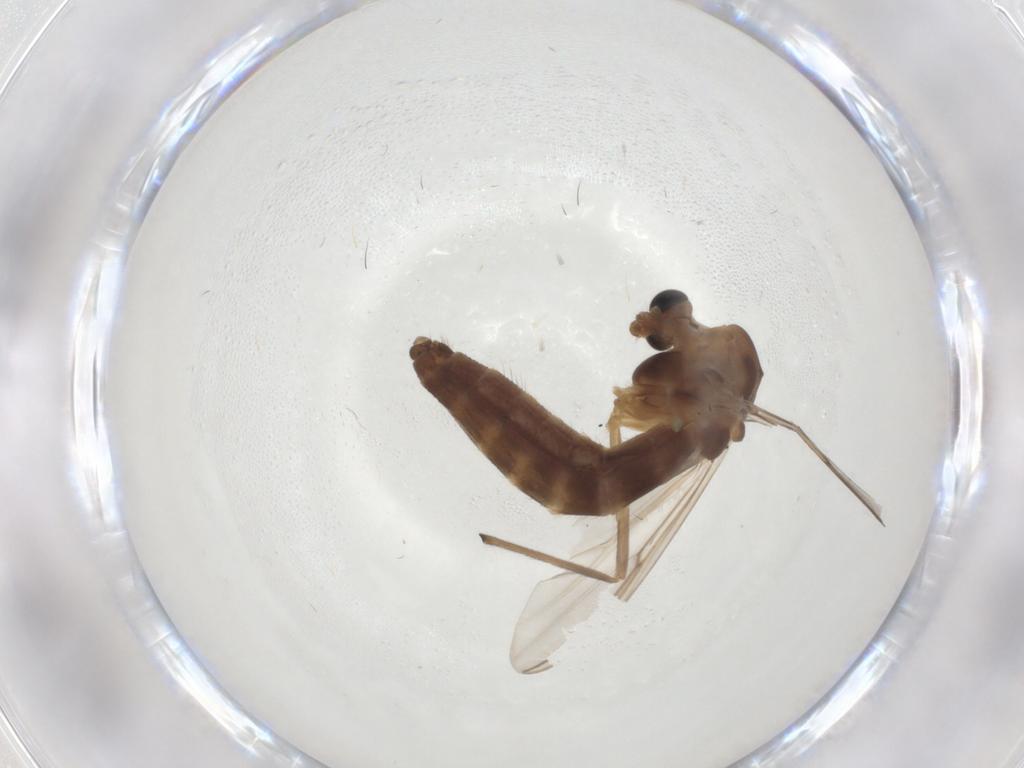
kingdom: Animalia
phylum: Arthropoda
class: Insecta
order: Diptera
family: Chironomidae
